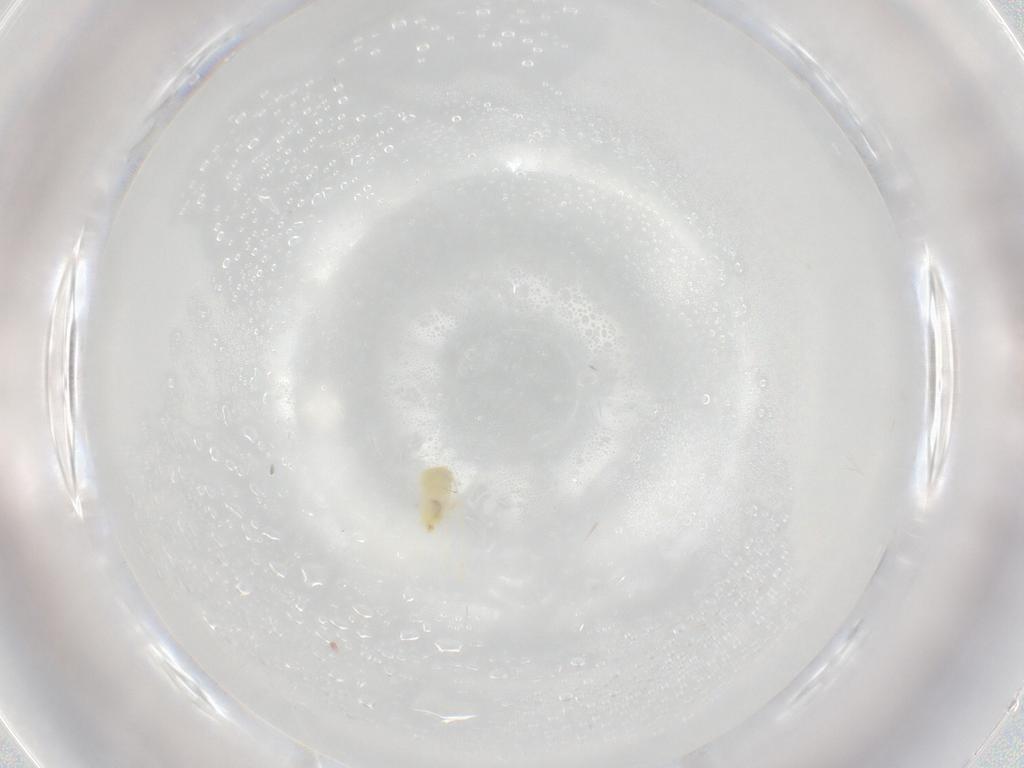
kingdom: Animalia
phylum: Arthropoda
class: Insecta
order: Hemiptera
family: Aleyrodidae
